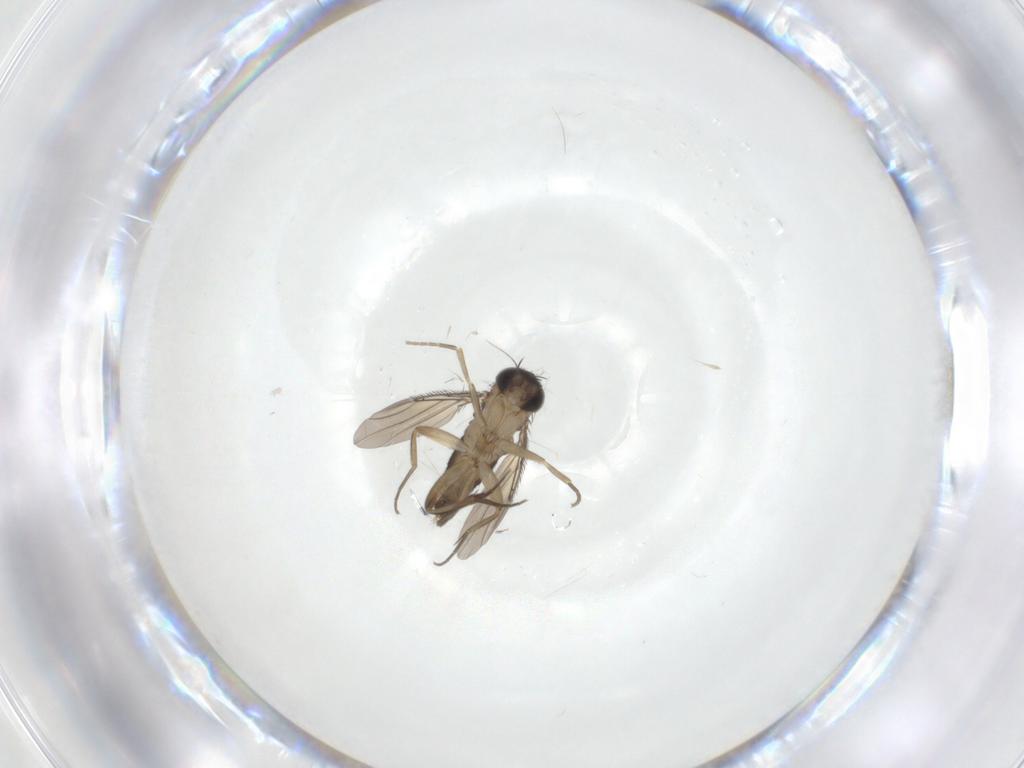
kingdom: Animalia
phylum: Arthropoda
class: Insecta
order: Diptera
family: Phoridae
